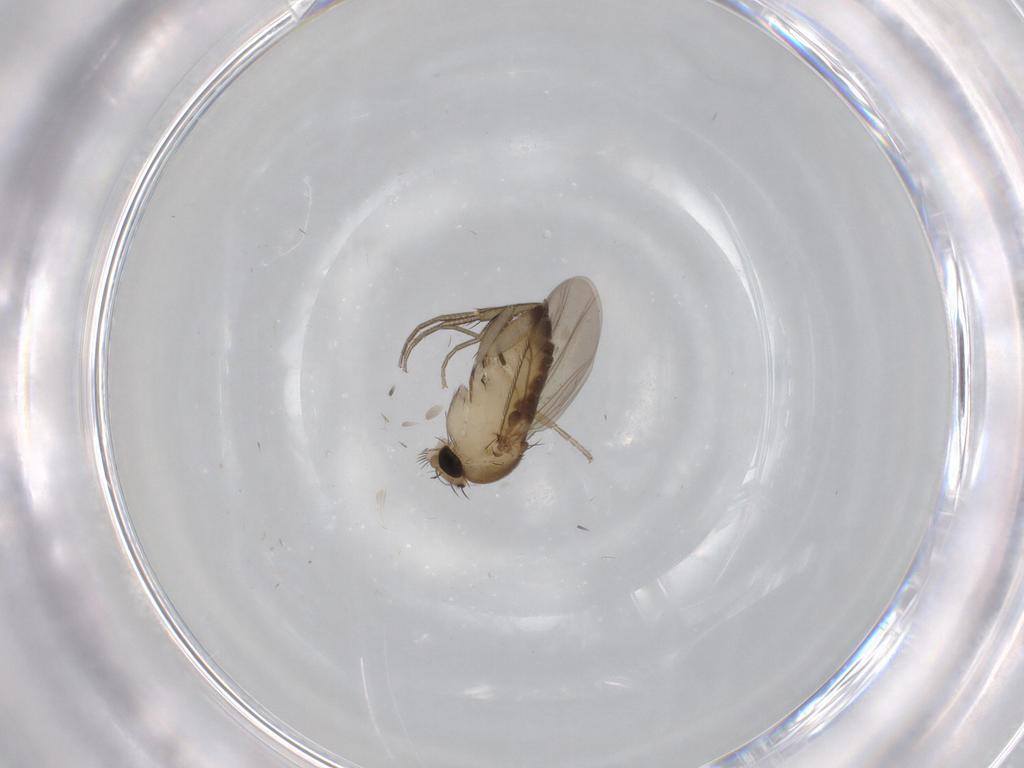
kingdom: Animalia
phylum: Arthropoda
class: Insecta
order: Diptera
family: Phoridae
